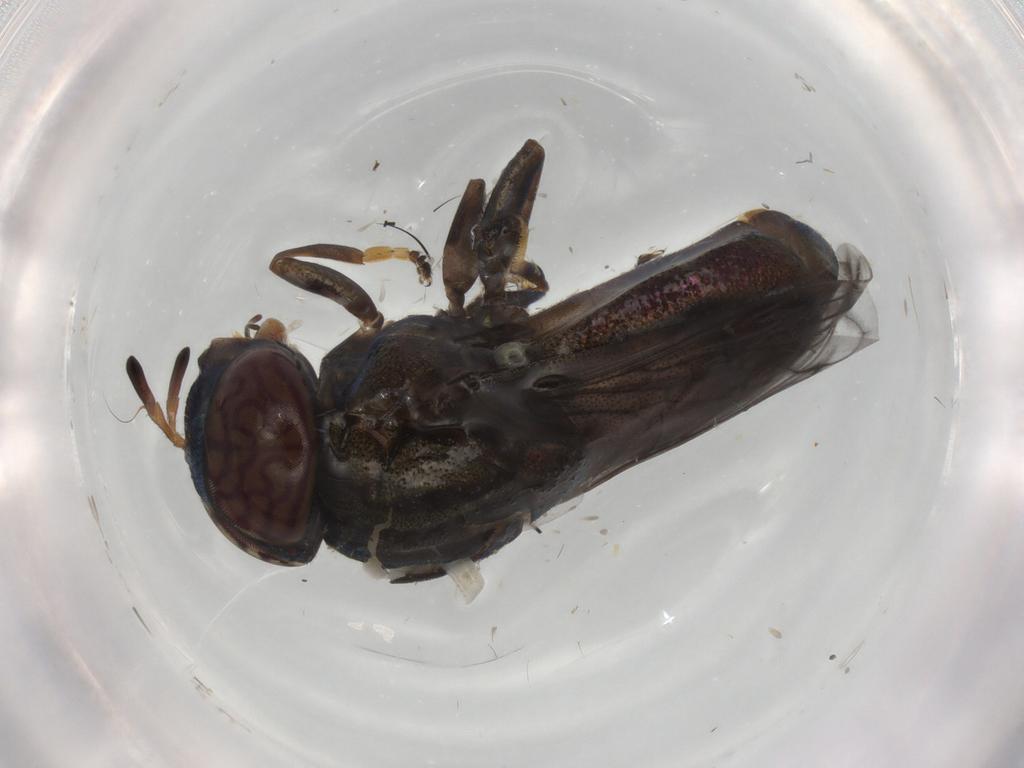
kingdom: Animalia
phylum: Arthropoda
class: Insecta
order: Diptera
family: Syrphidae
